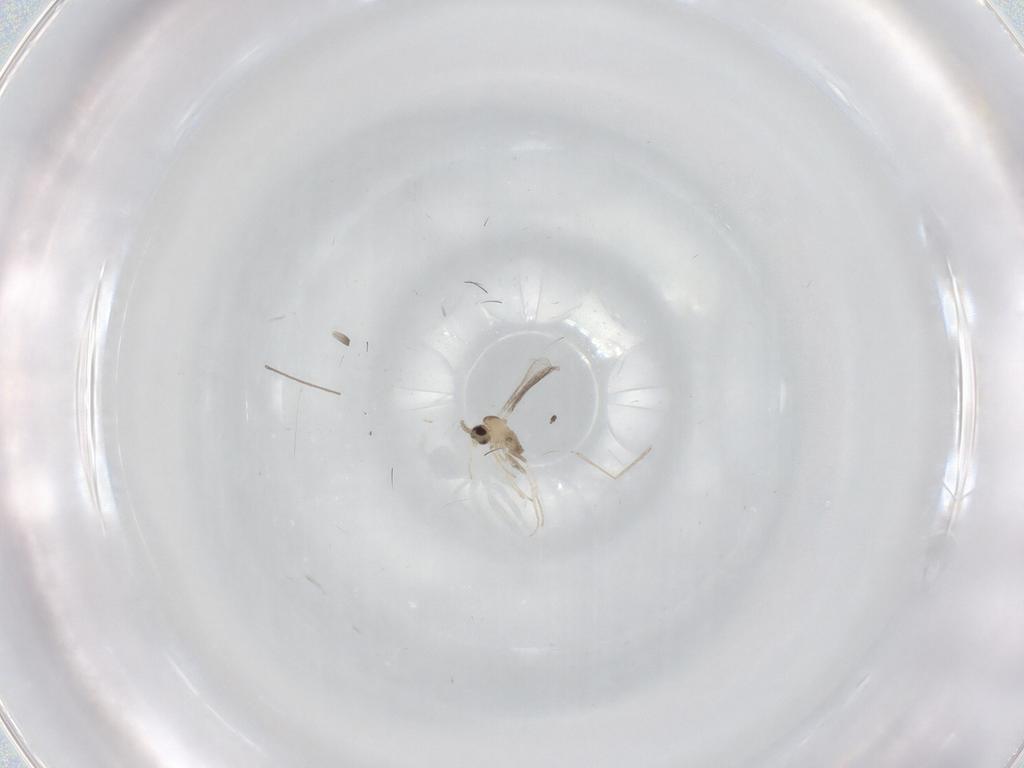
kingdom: Animalia
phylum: Arthropoda
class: Insecta
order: Diptera
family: Cecidomyiidae
